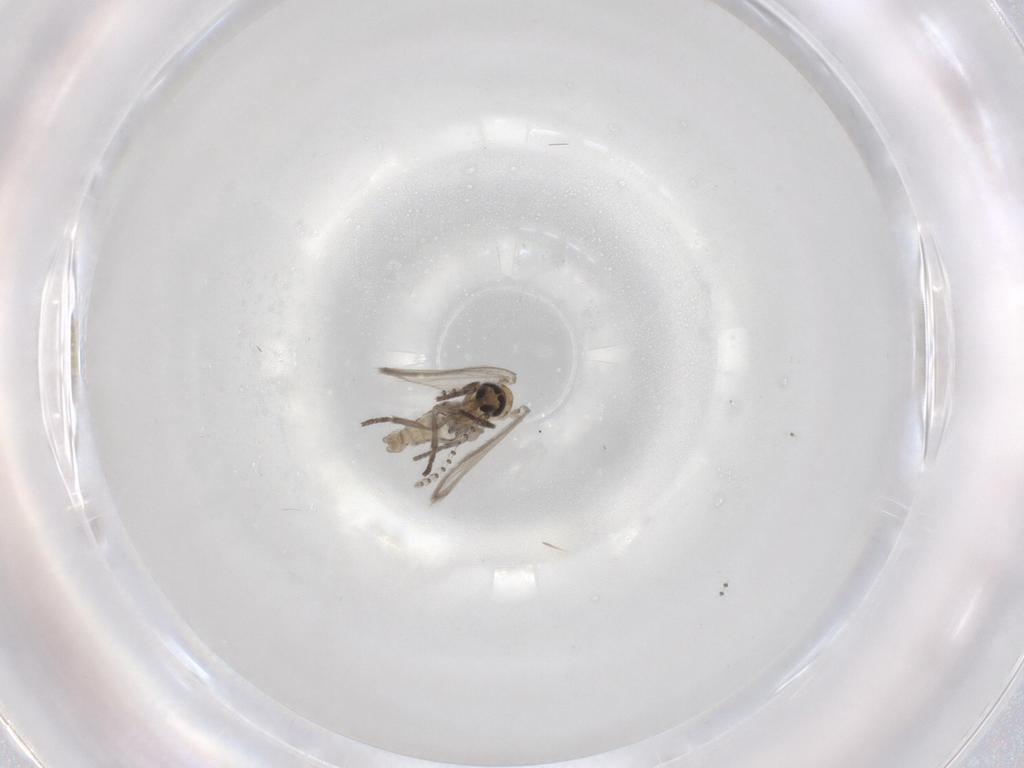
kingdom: Animalia
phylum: Arthropoda
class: Insecta
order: Diptera
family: Psychodidae
